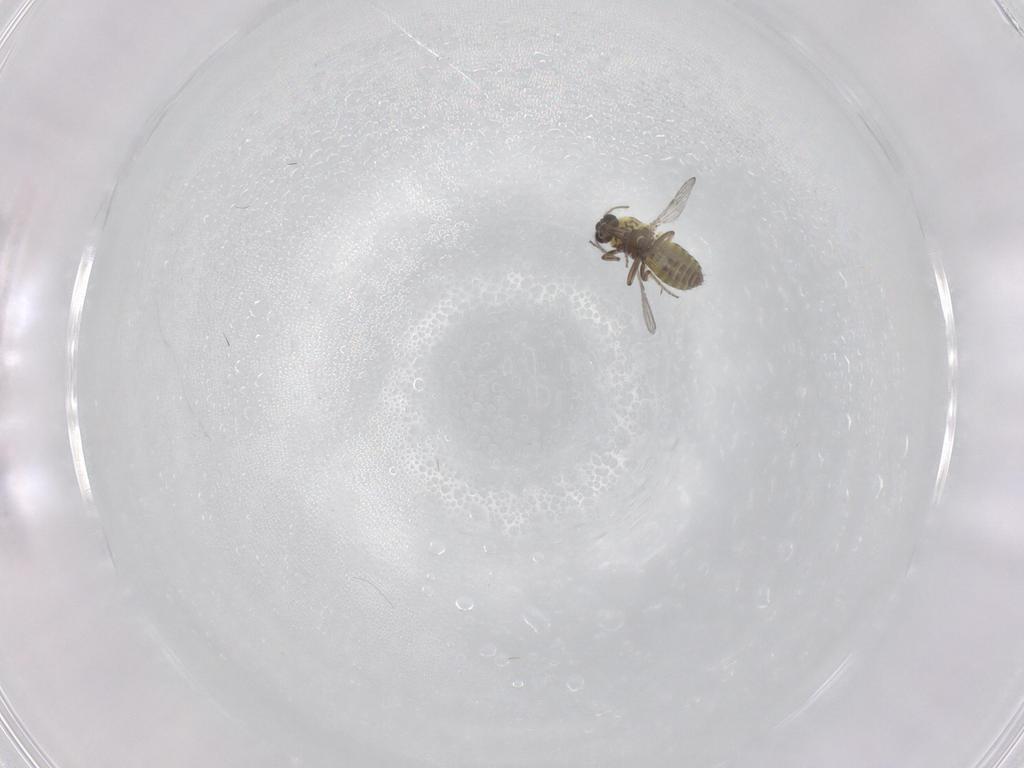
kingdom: Animalia
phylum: Arthropoda
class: Insecta
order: Diptera
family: Ceratopogonidae
